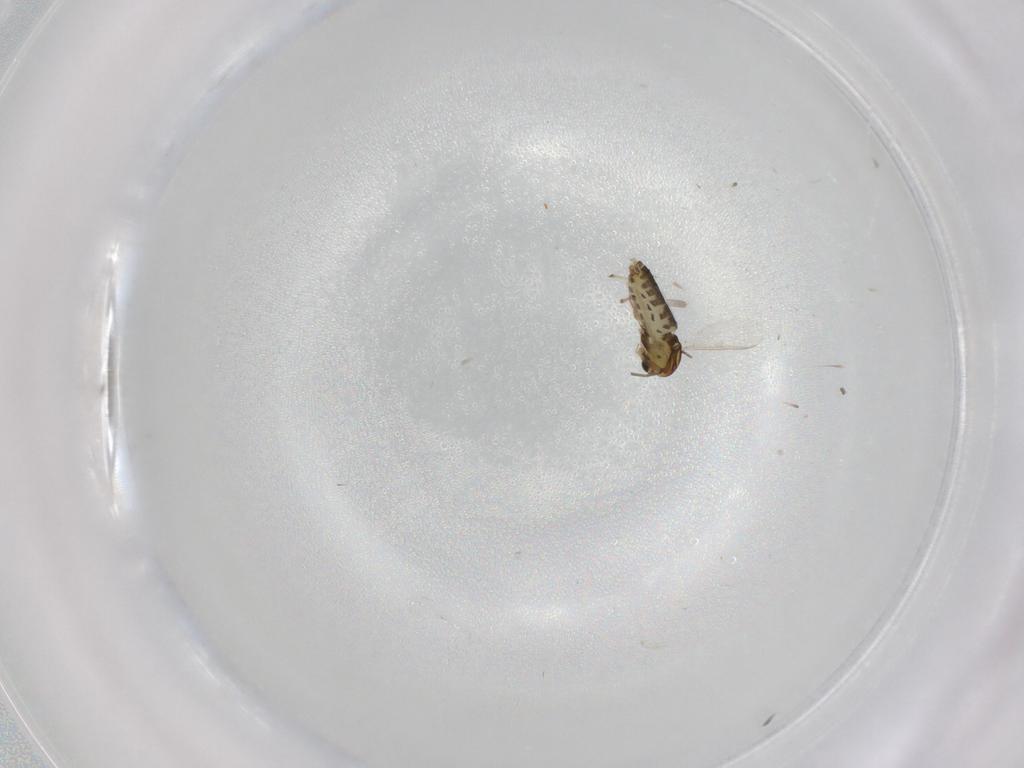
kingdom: Animalia
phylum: Arthropoda
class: Insecta
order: Diptera
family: Chironomidae
